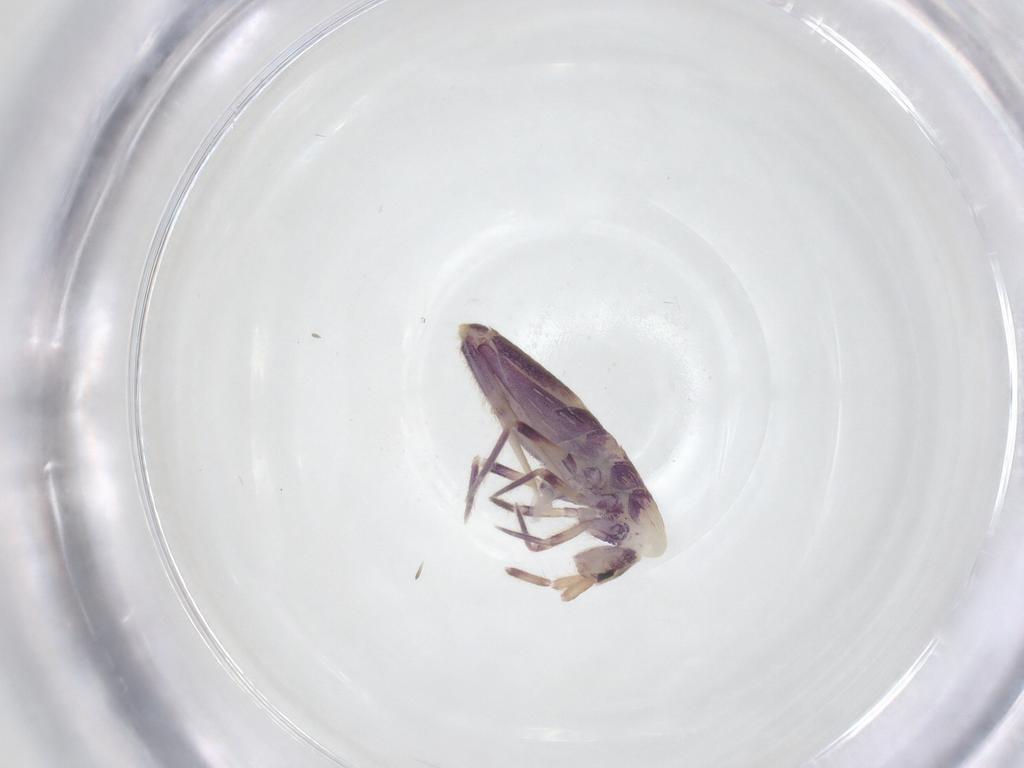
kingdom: Animalia
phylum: Arthropoda
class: Collembola
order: Entomobryomorpha
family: Entomobryidae
